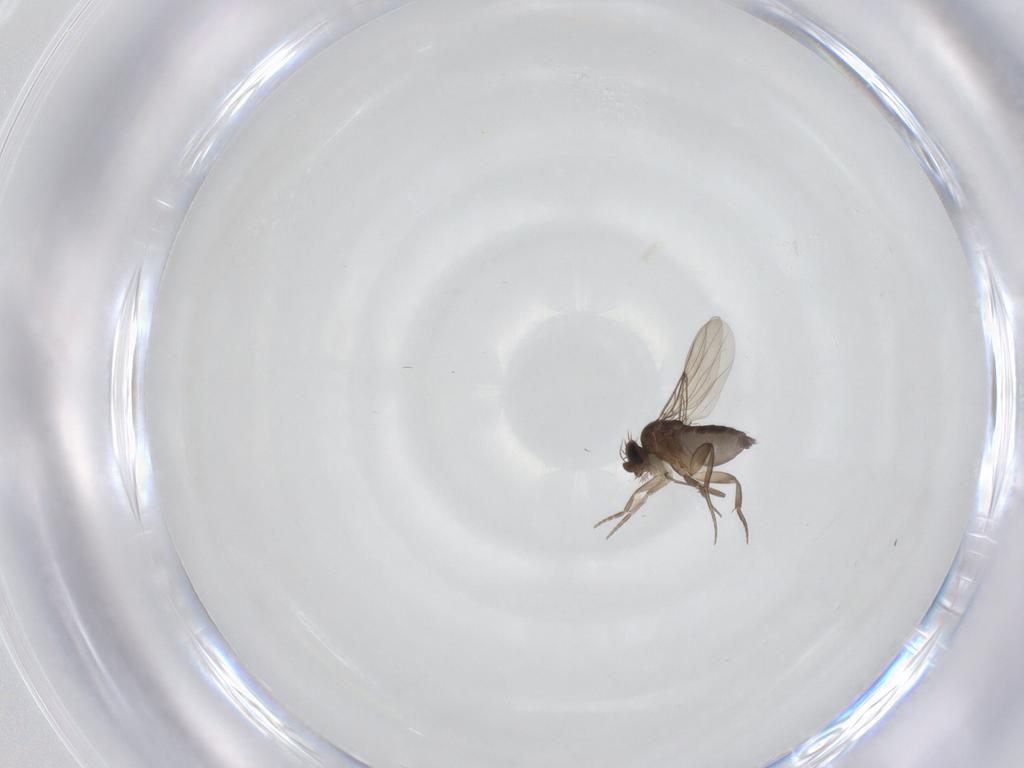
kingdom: Animalia
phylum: Arthropoda
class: Insecta
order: Diptera
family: Phoridae
